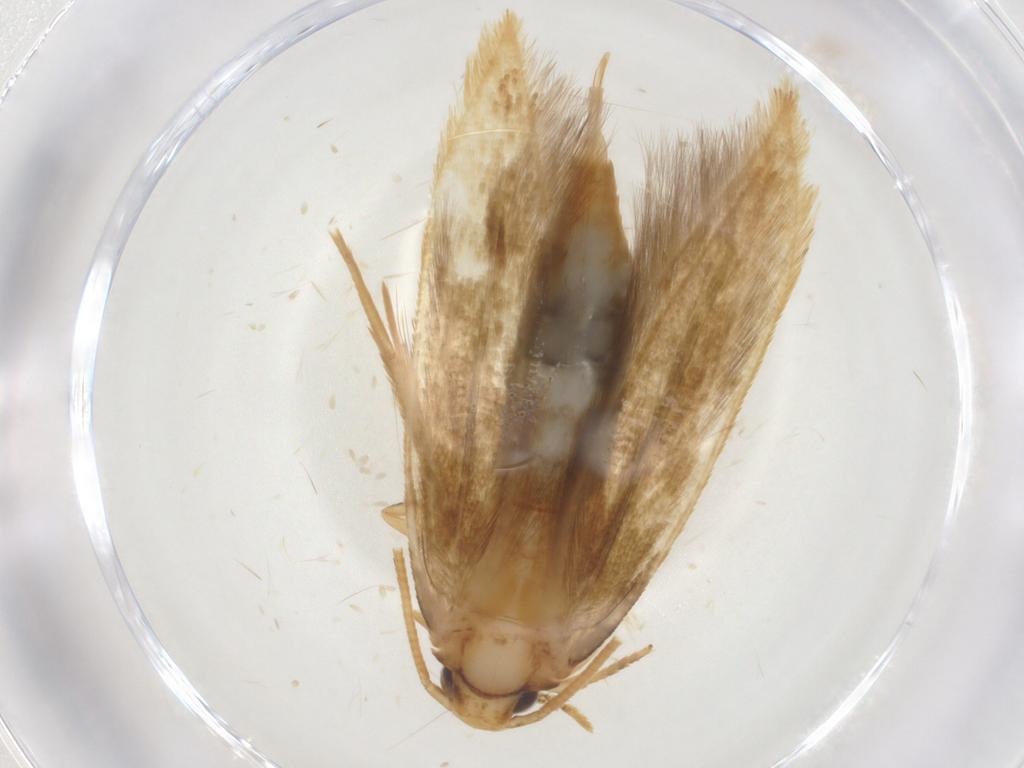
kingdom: Animalia
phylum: Arthropoda
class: Insecta
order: Lepidoptera
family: Tineidae
